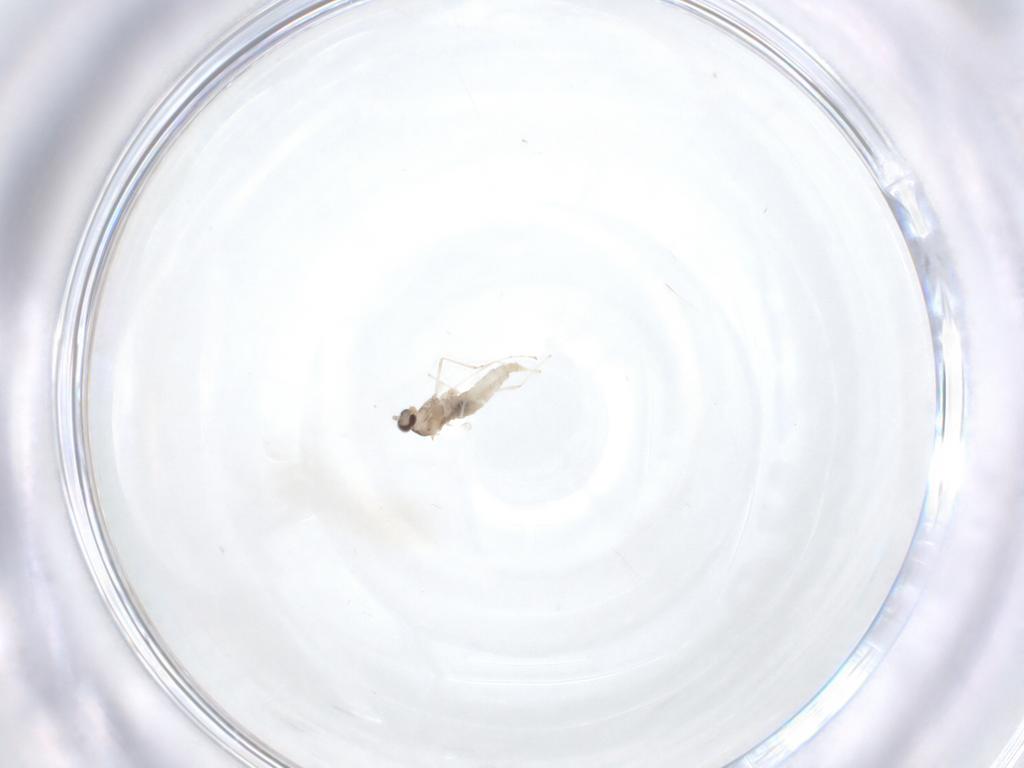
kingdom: Animalia
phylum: Arthropoda
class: Insecta
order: Diptera
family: Cecidomyiidae
